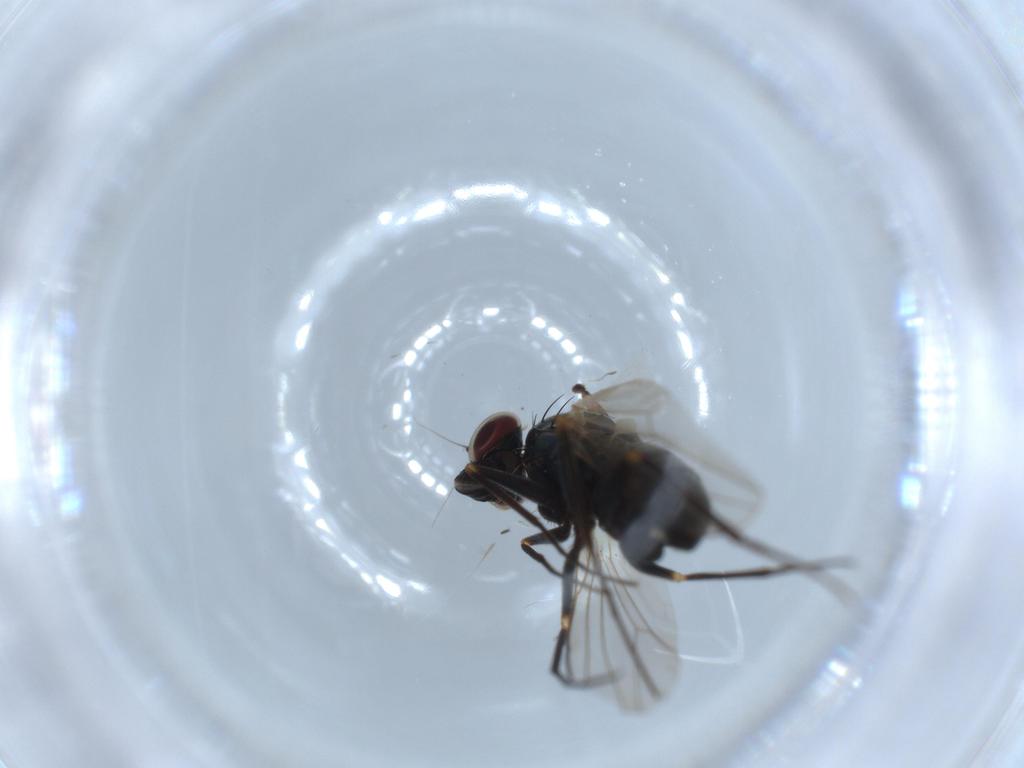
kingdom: Animalia
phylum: Arthropoda
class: Insecta
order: Diptera
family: Dolichopodidae
